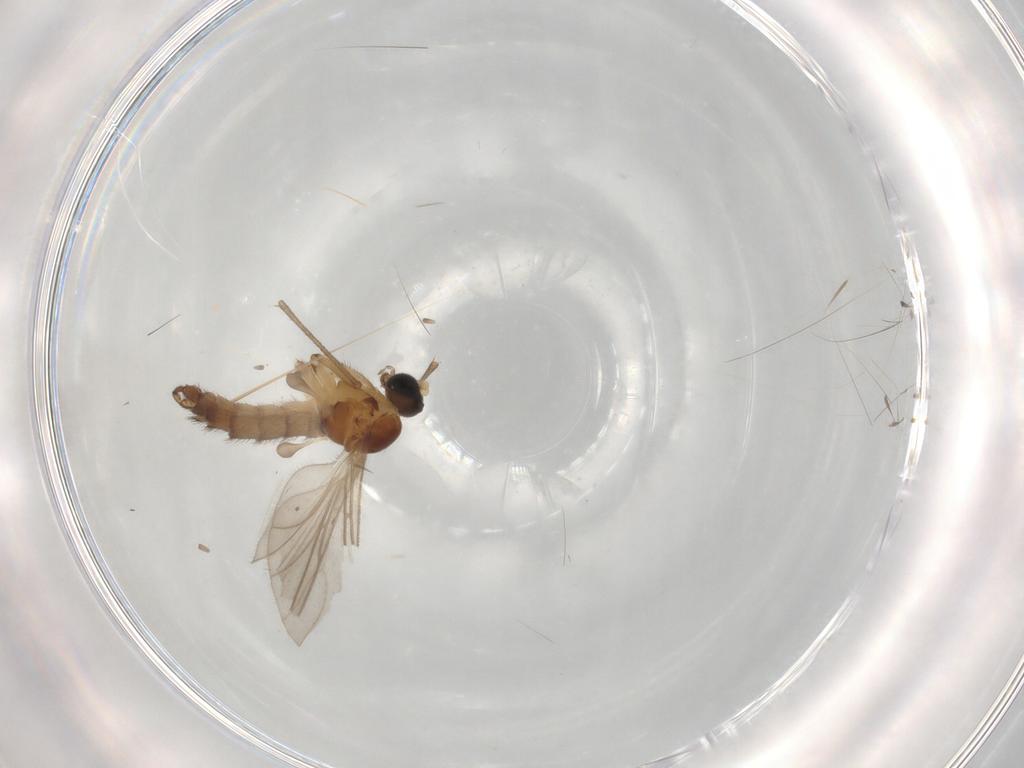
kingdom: Animalia
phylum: Arthropoda
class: Insecta
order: Diptera
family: Sciaridae
